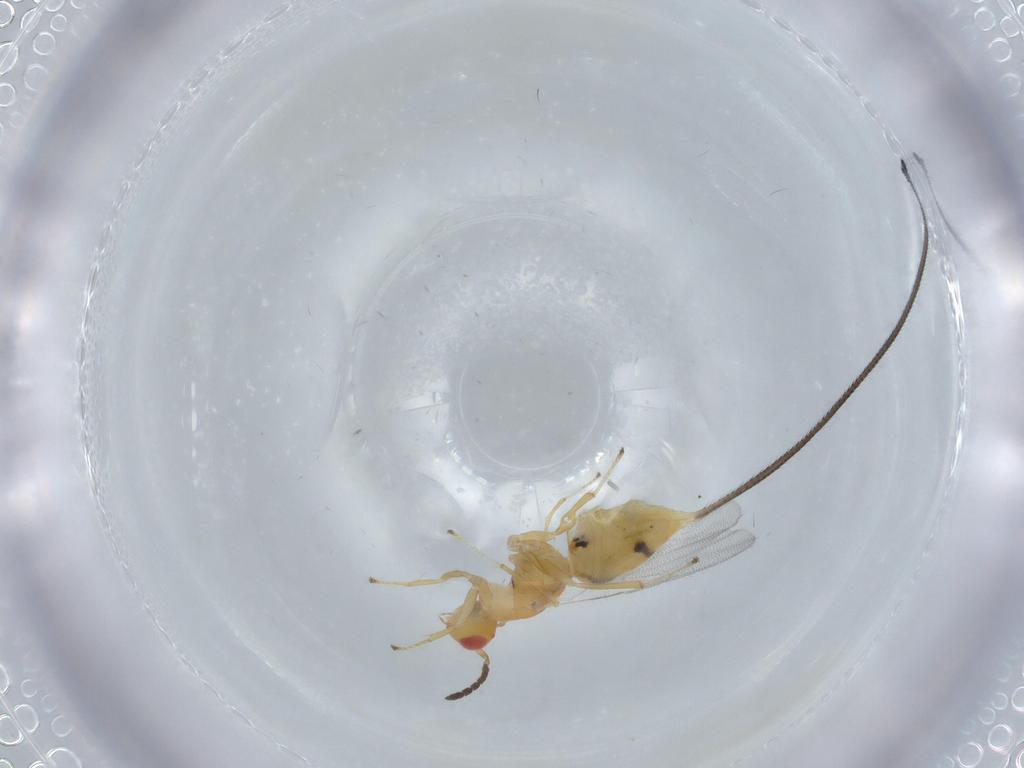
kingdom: Animalia
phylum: Arthropoda
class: Insecta
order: Hymenoptera
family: Pteromalidae
